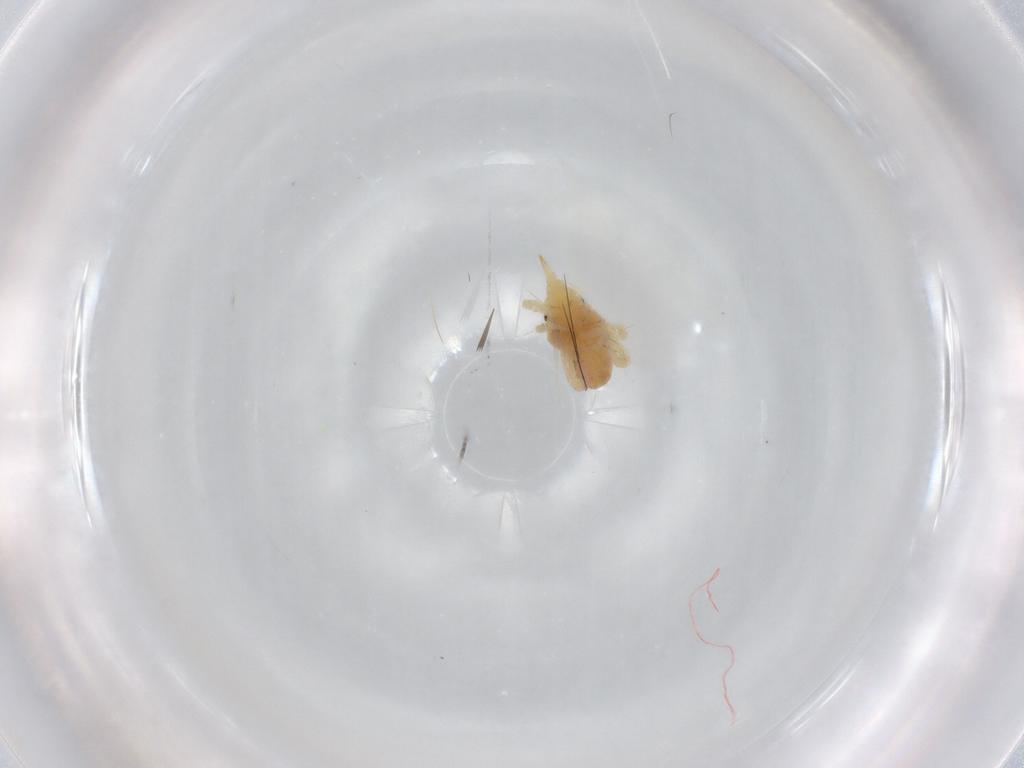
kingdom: Animalia
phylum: Arthropoda
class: Arachnida
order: Trombidiformes
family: Bdellidae
